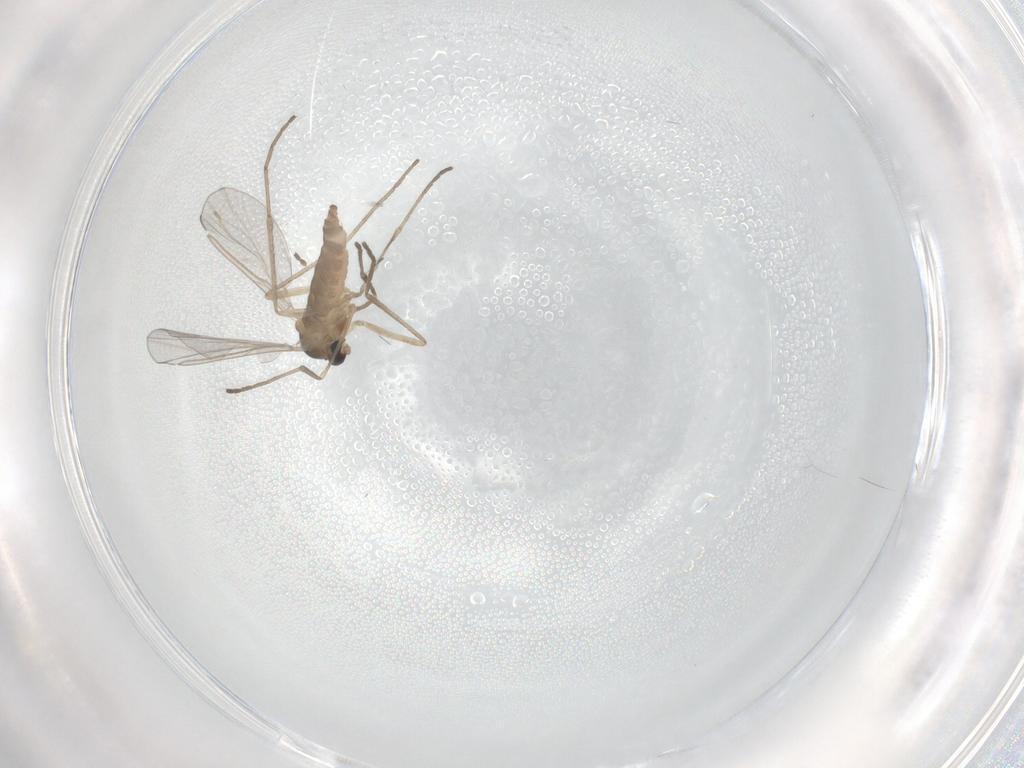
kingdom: Animalia
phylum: Arthropoda
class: Insecta
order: Diptera
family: Cecidomyiidae
